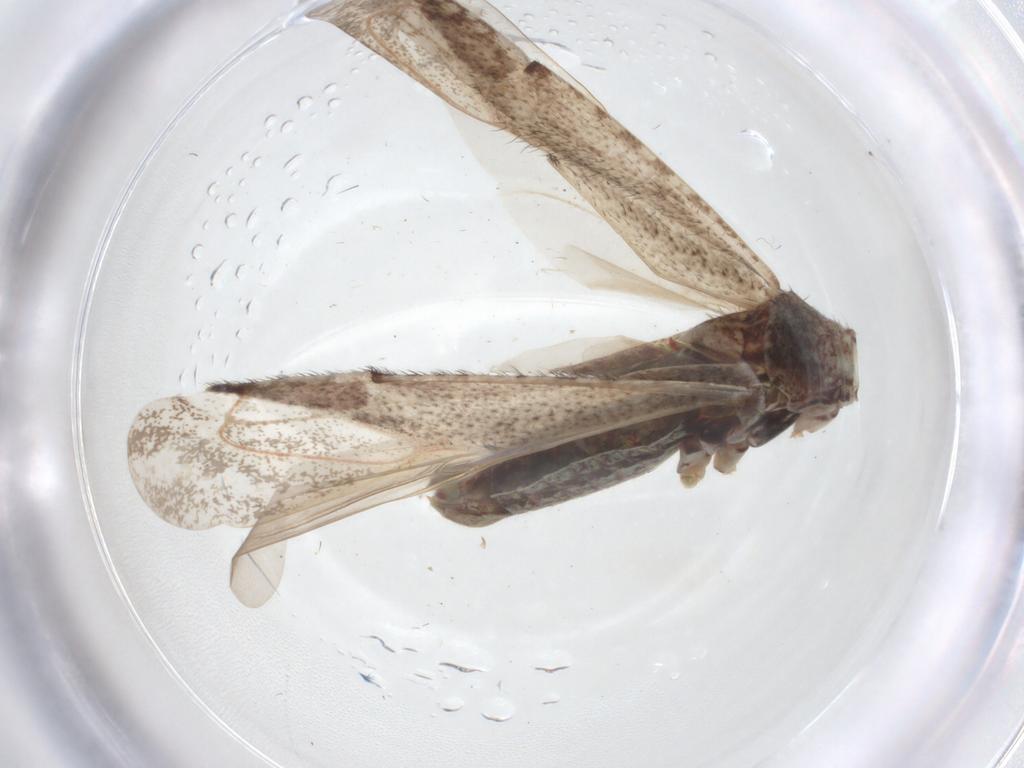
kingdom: Animalia
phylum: Arthropoda
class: Insecta
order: Hemiptera
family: Miridae
